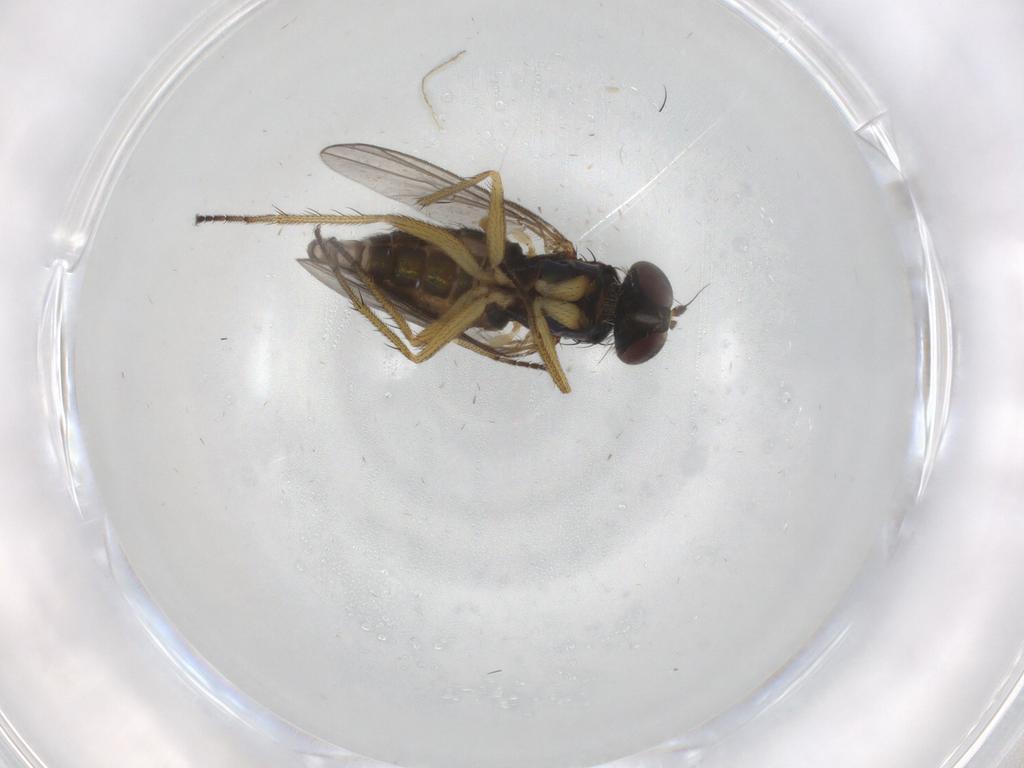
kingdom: Animalia
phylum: Arthropoda
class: Insecta
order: Diptera
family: Ceratopogonidae
